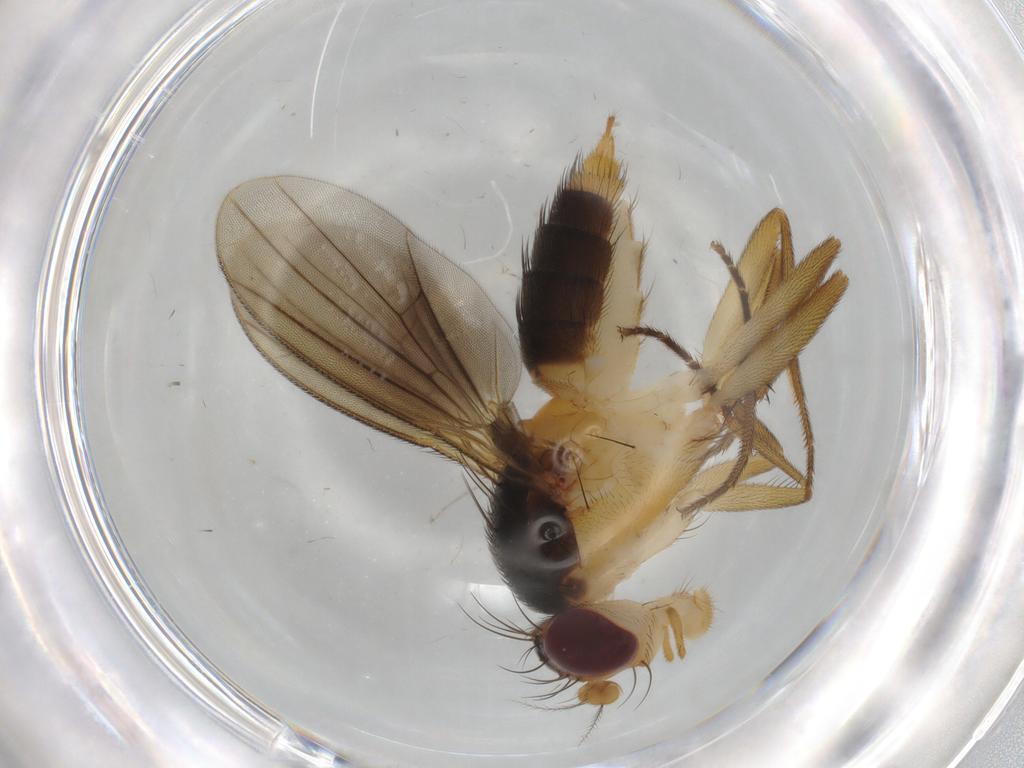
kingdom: Animalia
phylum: Arthropoda
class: Insecta
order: Diptera
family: Clusiidae
